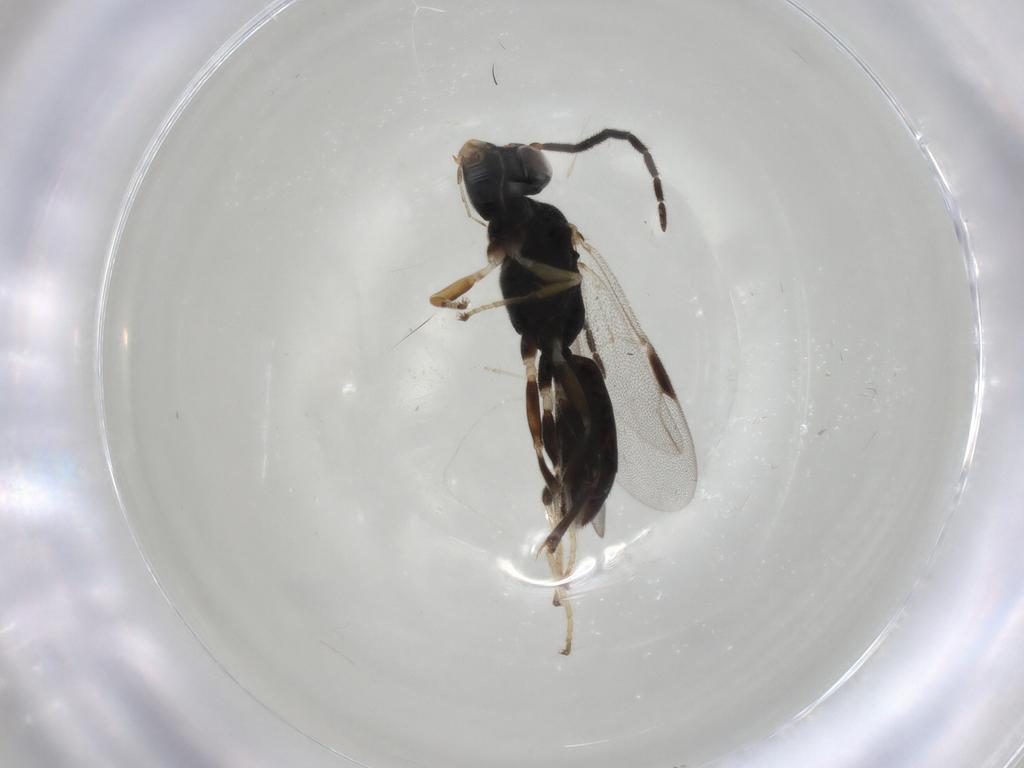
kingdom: Animalia
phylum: Arthropoda
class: Insecta
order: Hymenoptera
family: Dryinidae
